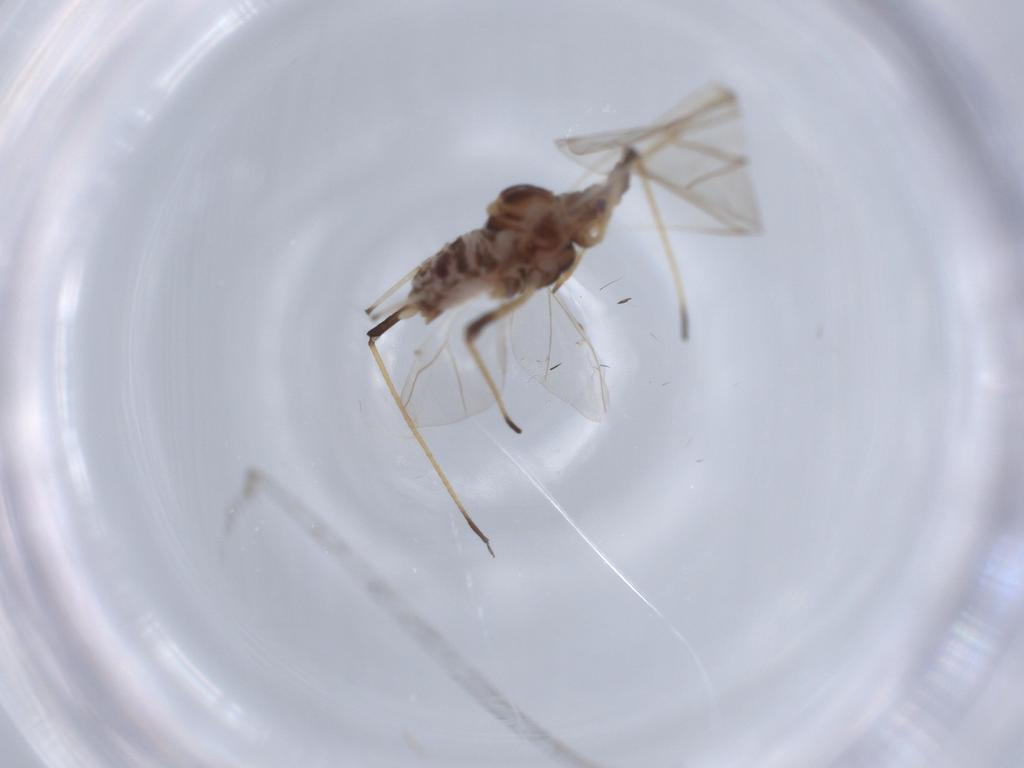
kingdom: Animalia
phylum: Arthropoda
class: Insecta
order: Hemiptera
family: Aphididae
